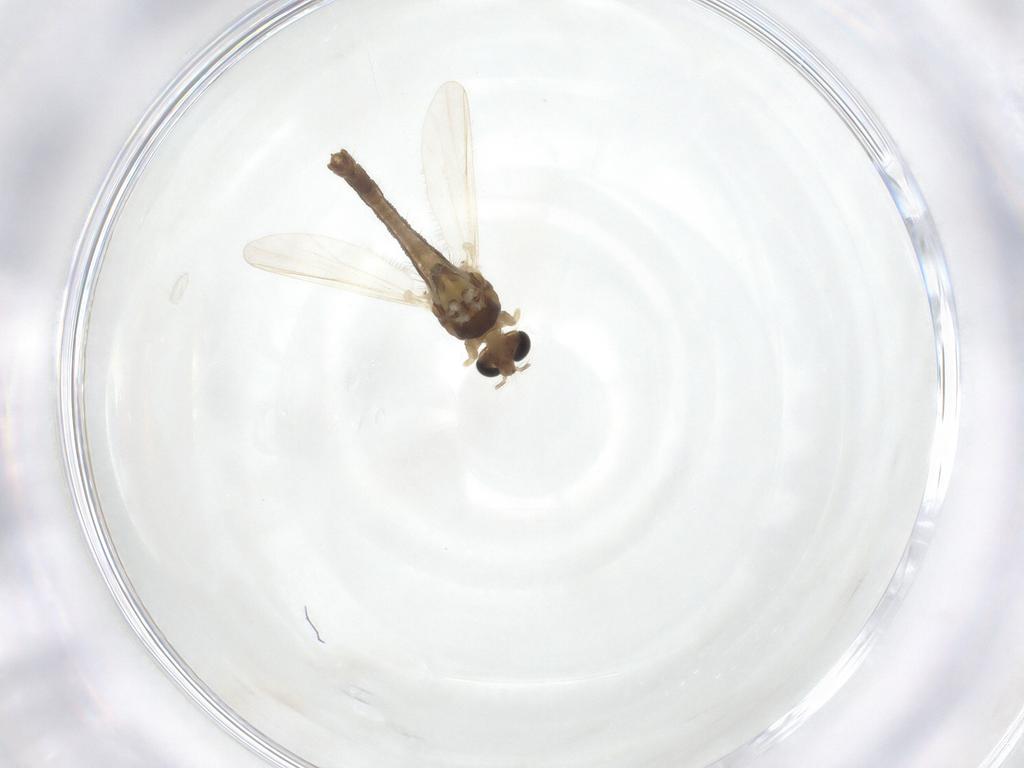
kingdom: Animalia
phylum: Arthropoda
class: Insecta
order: Diptera
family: Chironomidae
